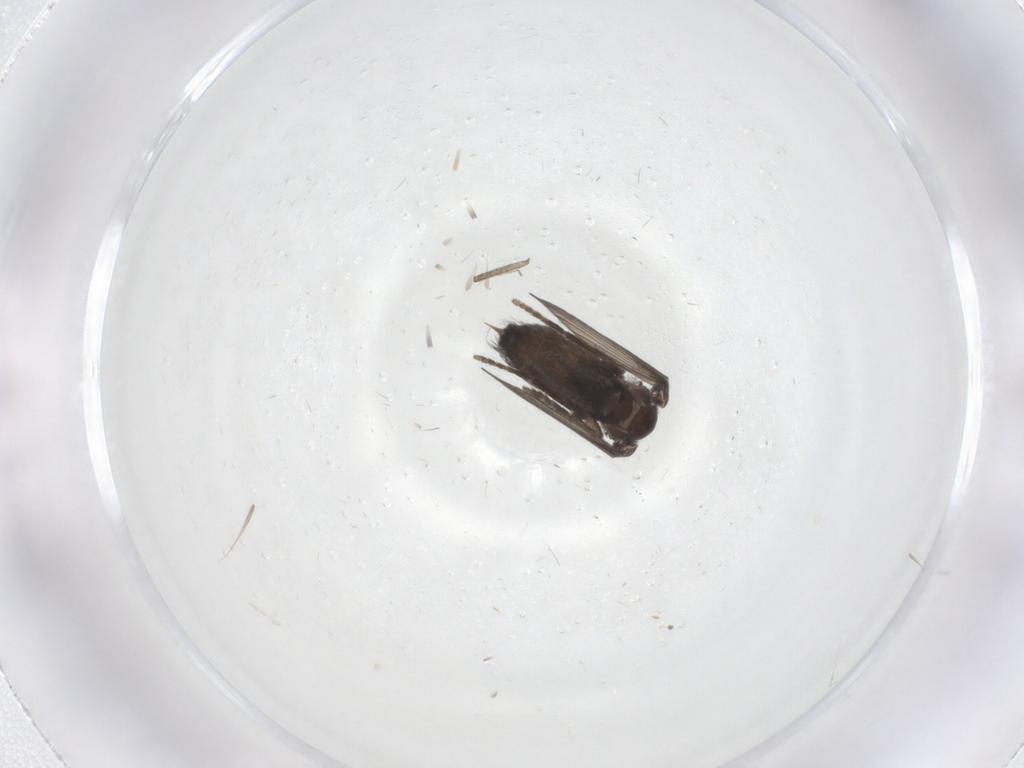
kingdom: Animalia
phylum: Arthropoda
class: Insecta
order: Diptera
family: Psychodidae
